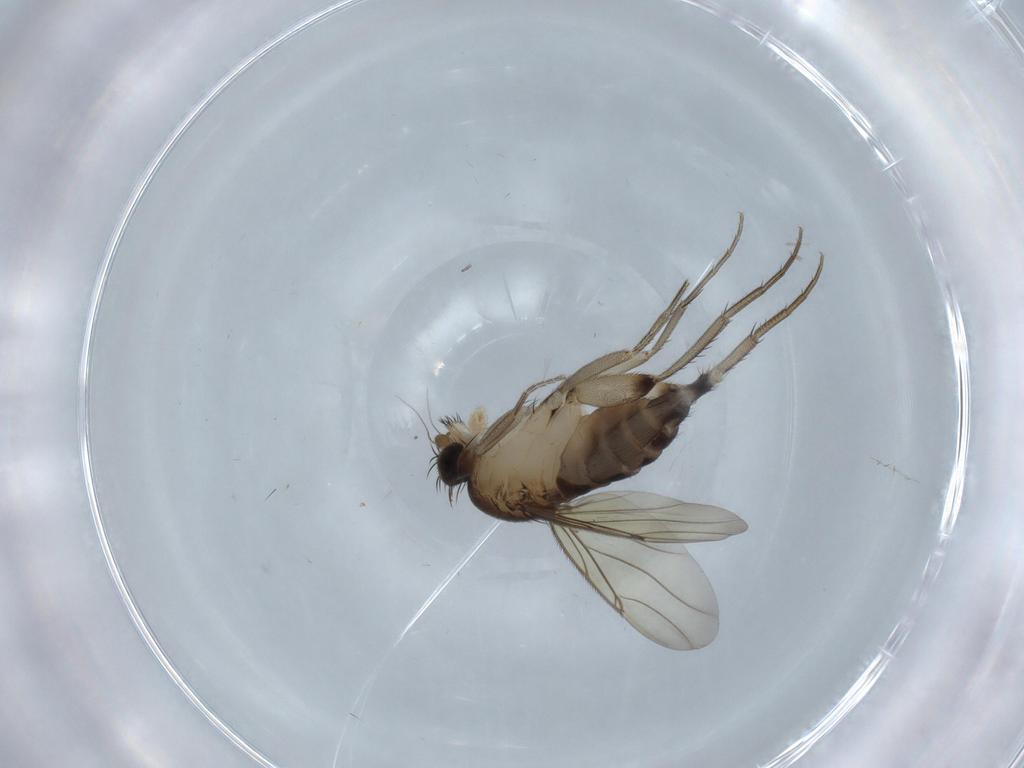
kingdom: Animalia
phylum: Arthropoda
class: Insecta
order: Diptera
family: Phoridae
